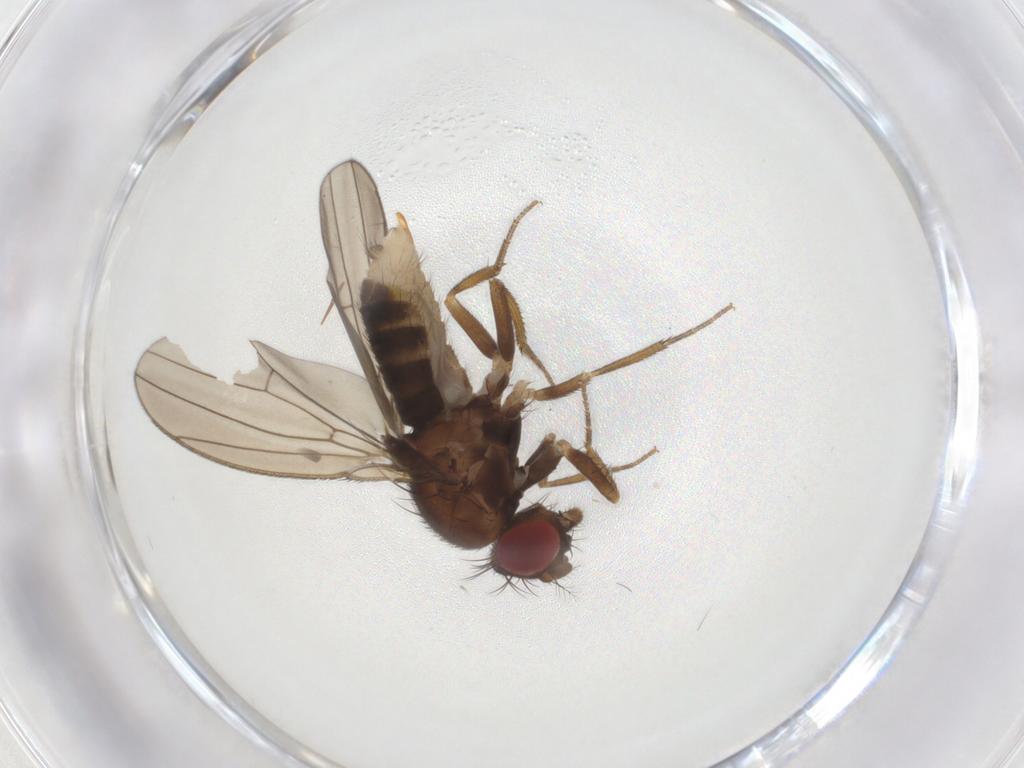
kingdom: Animalia
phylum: Arthropoda
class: Insecta
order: Diptera
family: Drosophilidae
